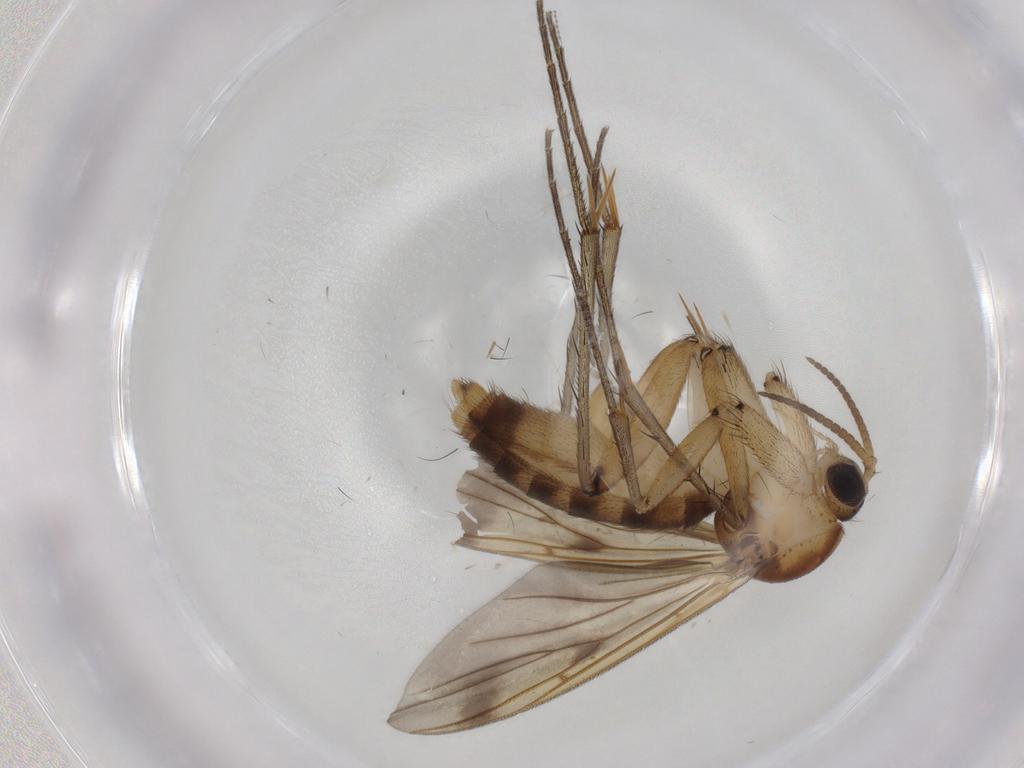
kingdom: Animalia
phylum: Arthropoda
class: Insecta
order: Diptera
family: Mycetophilidae
